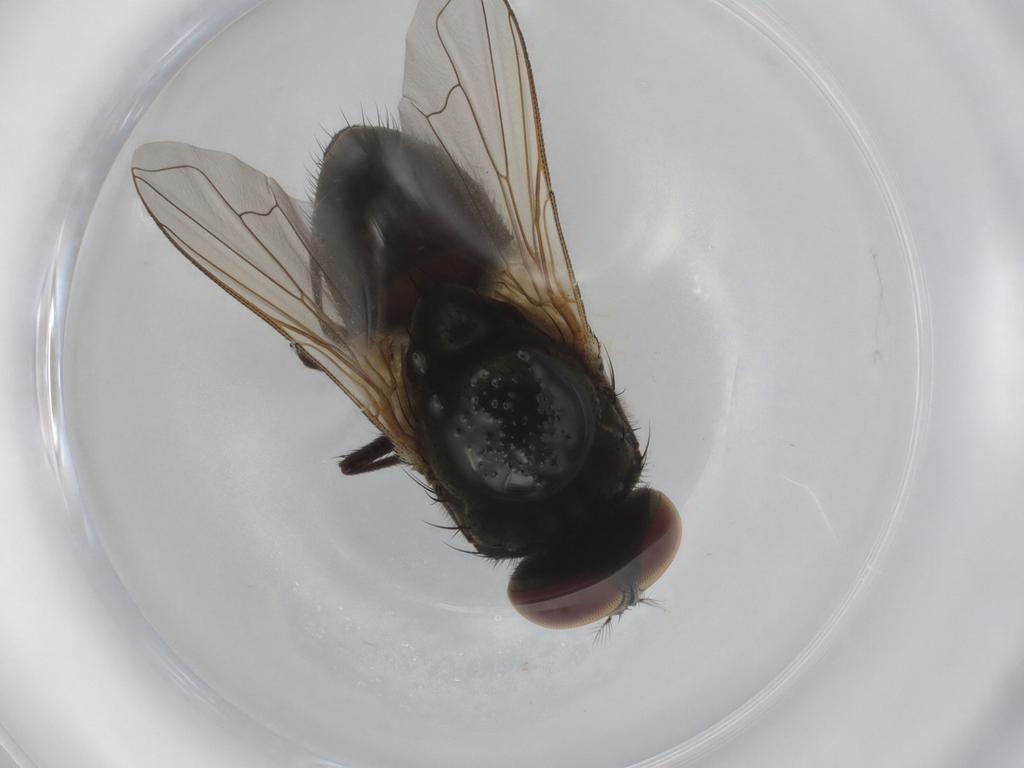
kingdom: Animalia
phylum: Arthropoda
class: Insecta
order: Diptera
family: Muscidae
